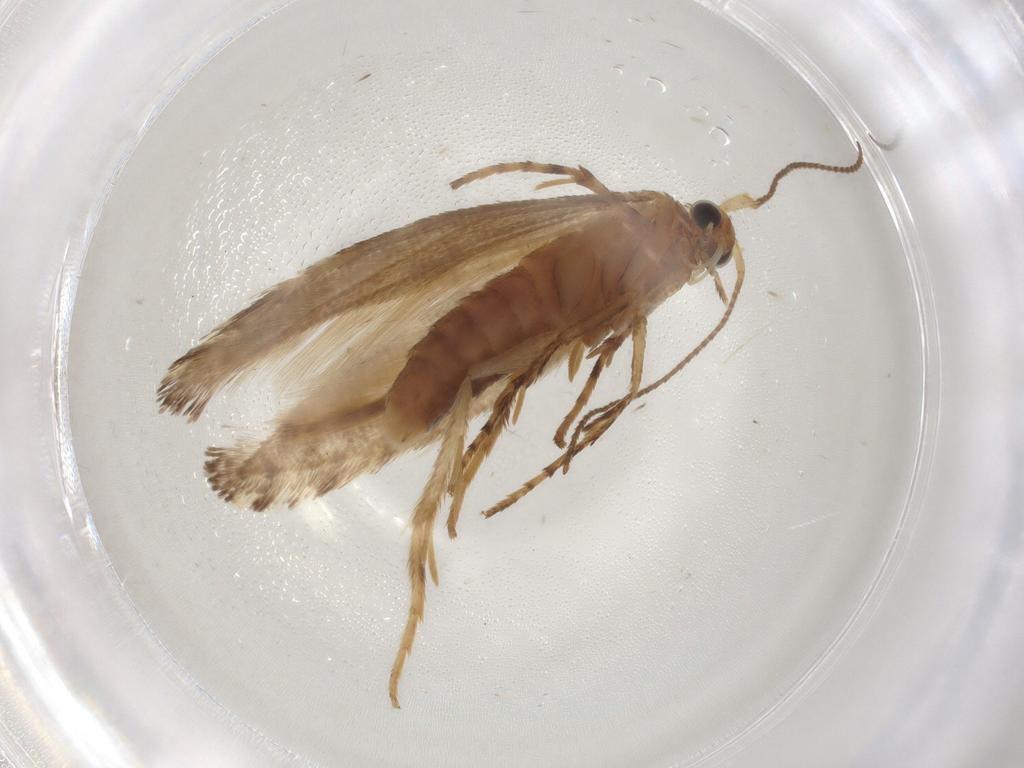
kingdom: Animalia
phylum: Arthropoda
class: Insecta
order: Lepidoptera
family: Argyresthiidae
